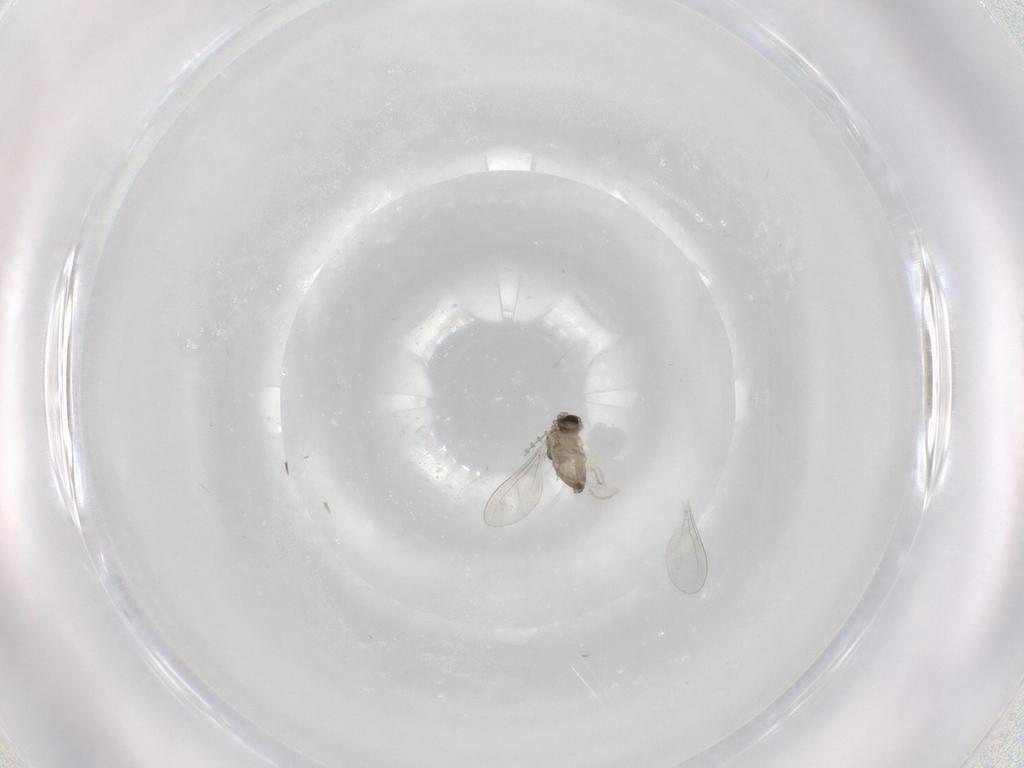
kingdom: Animalia
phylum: Arthropoda
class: Insecta
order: Diptera
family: Cecidomyiidae
